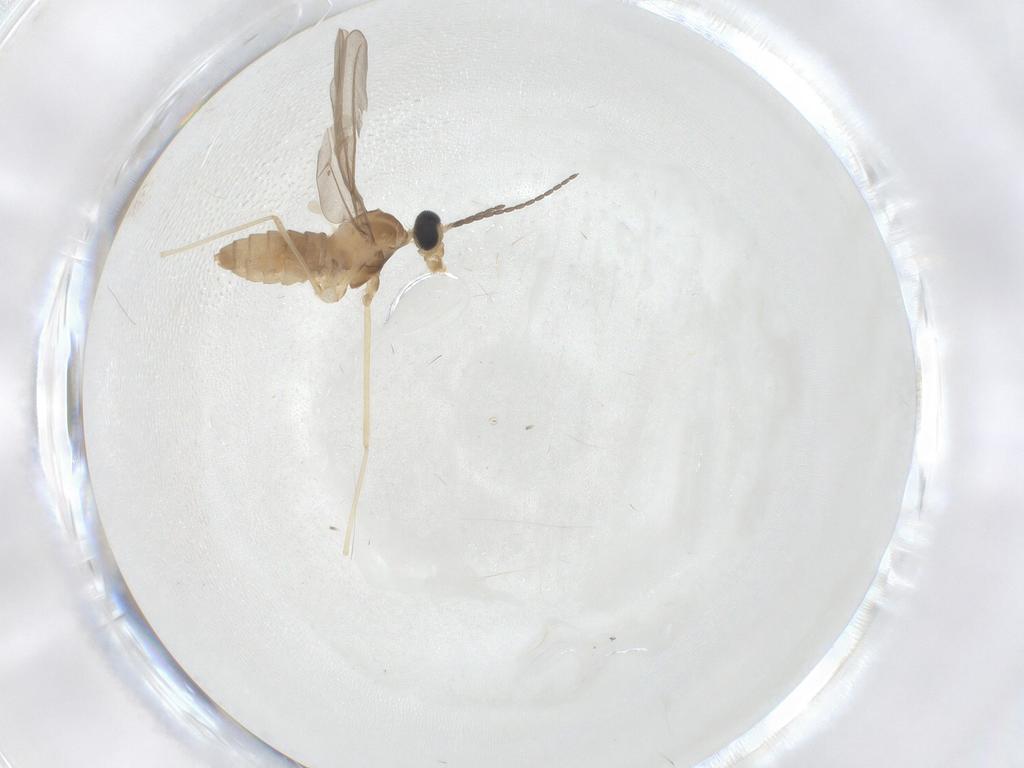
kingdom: Animalia
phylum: Arthropoda
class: Insecta
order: Diptera
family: Cecidomyiidae
